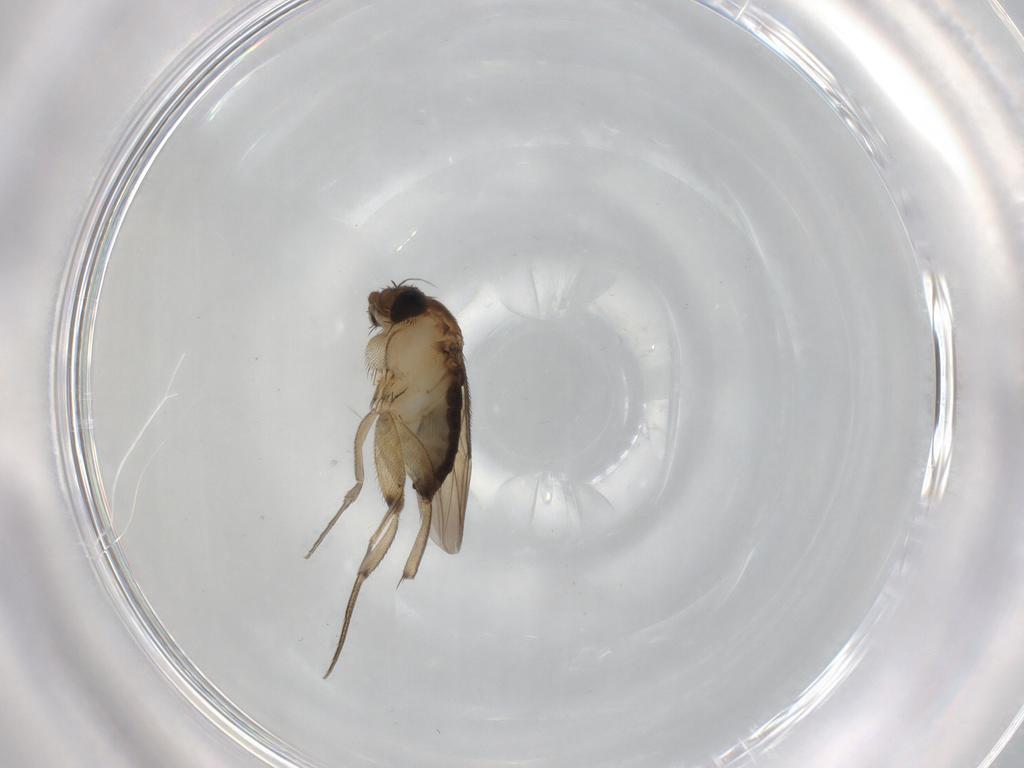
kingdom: Animalia
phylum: Arthropoda
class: Insecta
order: Diptera
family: Phoridae
